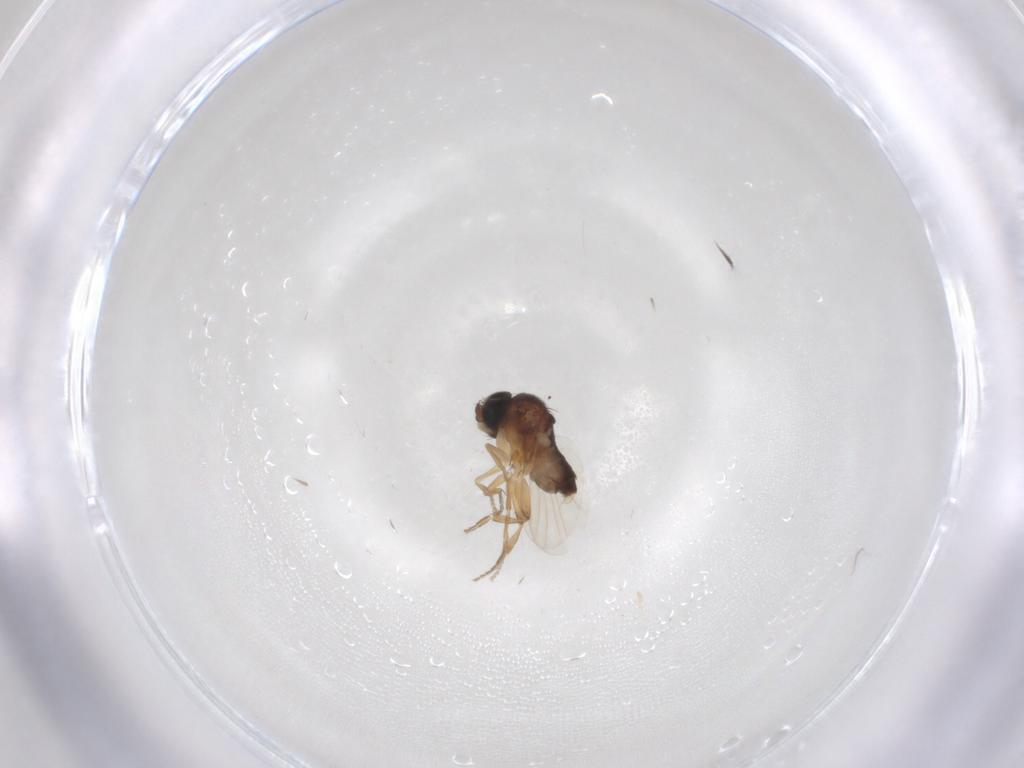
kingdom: Animalia
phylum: Arthropoda
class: Insecta
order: Diptera
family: Phoridae
